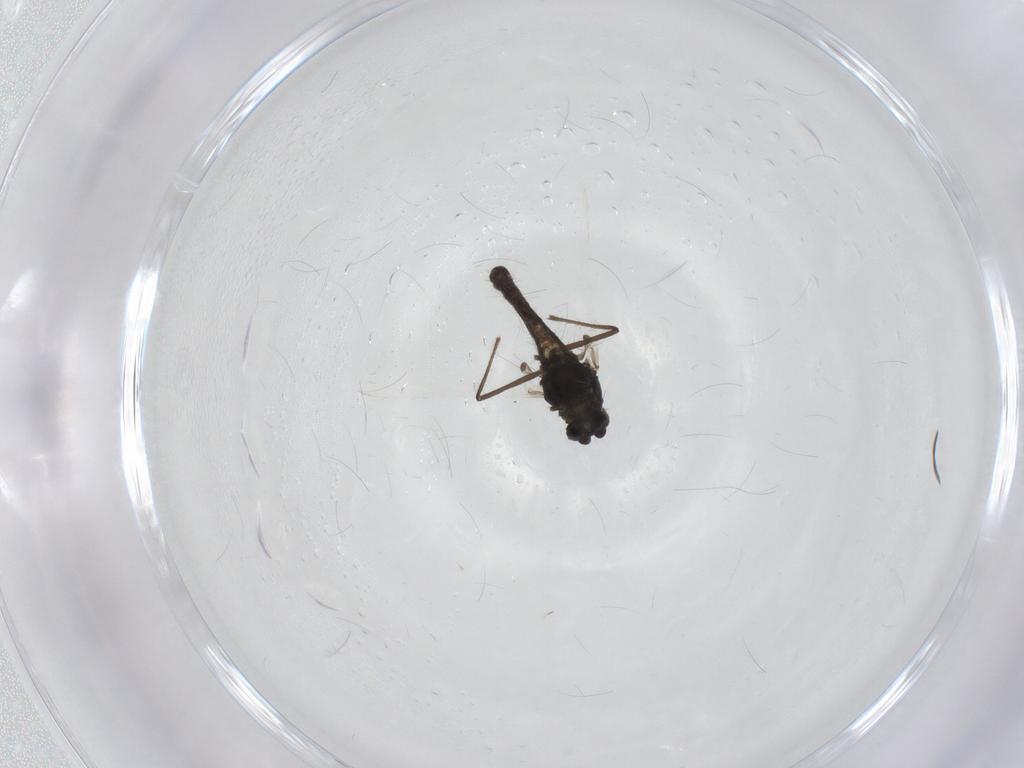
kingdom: Animalia
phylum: Arthropoda
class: Insecta
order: Diptera
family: Chironomidae
